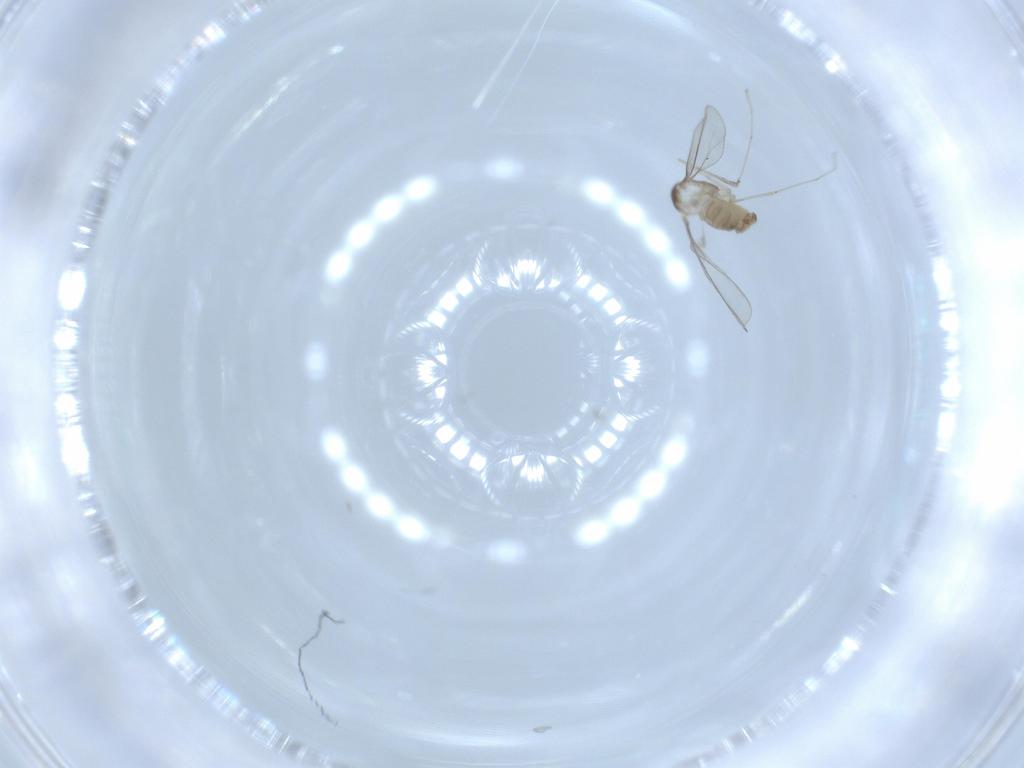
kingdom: Animalia
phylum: Arthropoda
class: Insecta
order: Diptera
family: Cecidomyiidae
